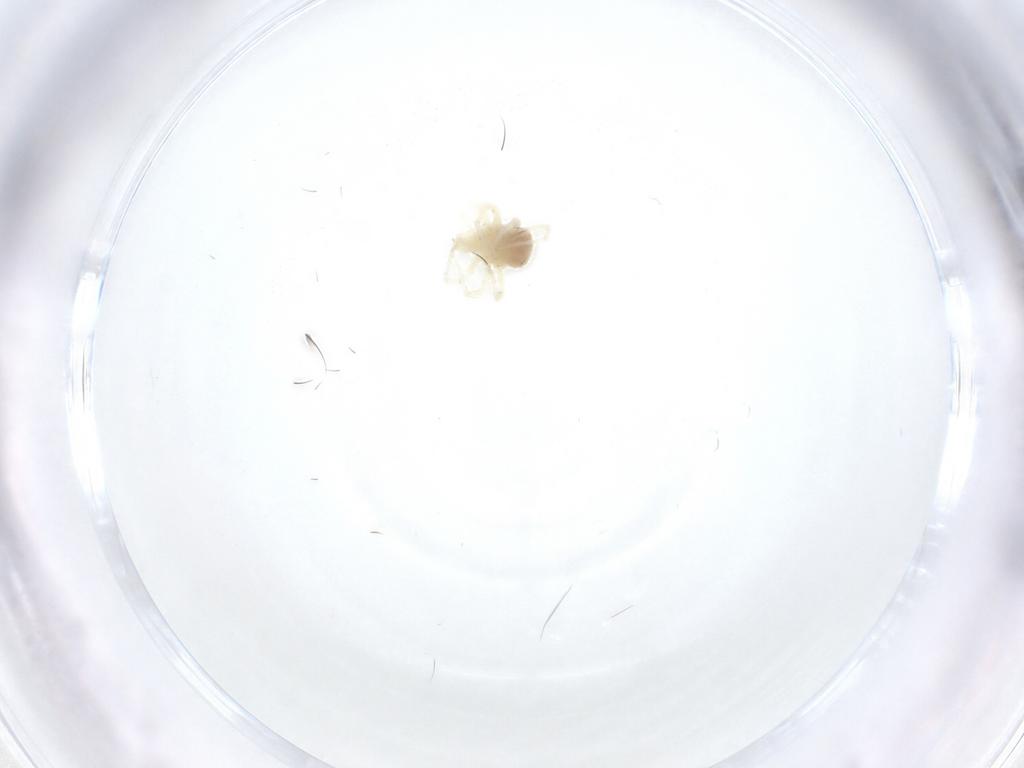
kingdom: Animalia
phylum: Arthropoda
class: Arachnida
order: Trombidiformes
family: Anystidae
